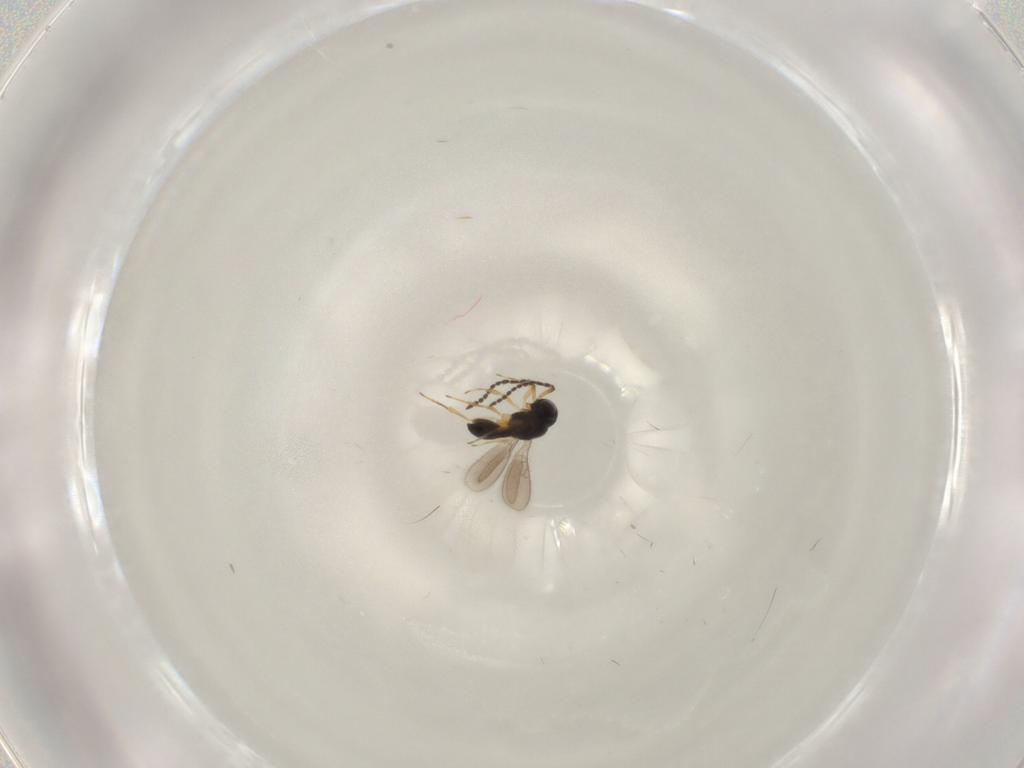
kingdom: Animalia
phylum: Arthropoda
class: Insecta
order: Hymenoptera
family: Scelionidae
